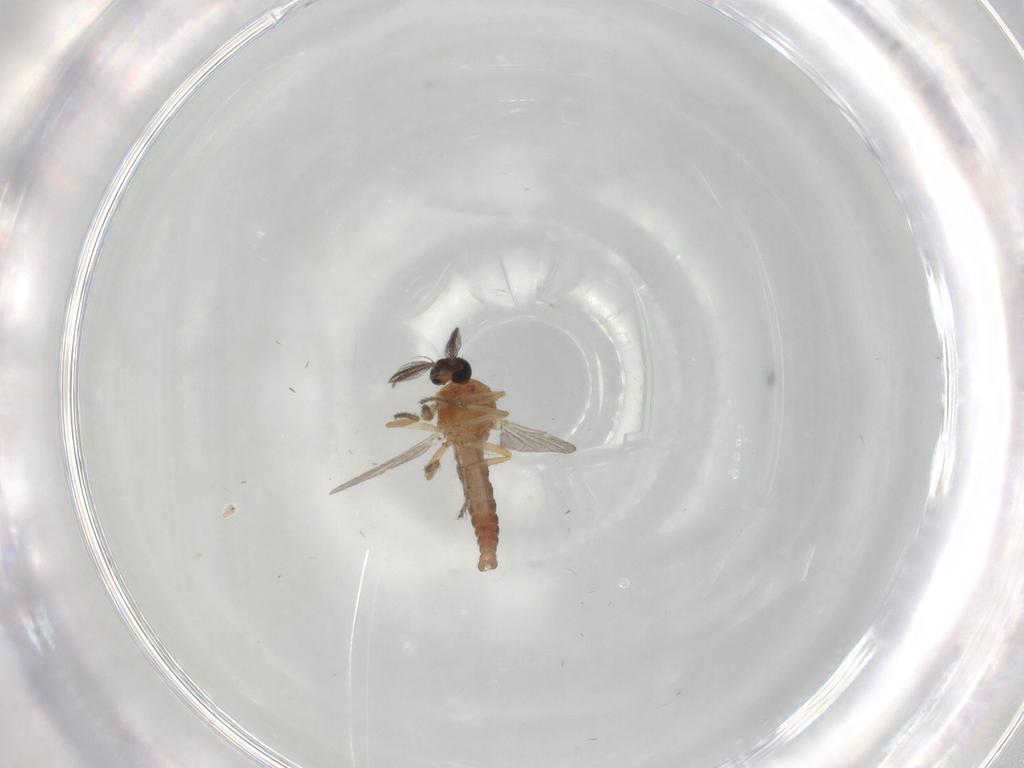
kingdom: Animalia
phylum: Arthropoda
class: Insecta
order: Diptera
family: Ceratopogonidae
